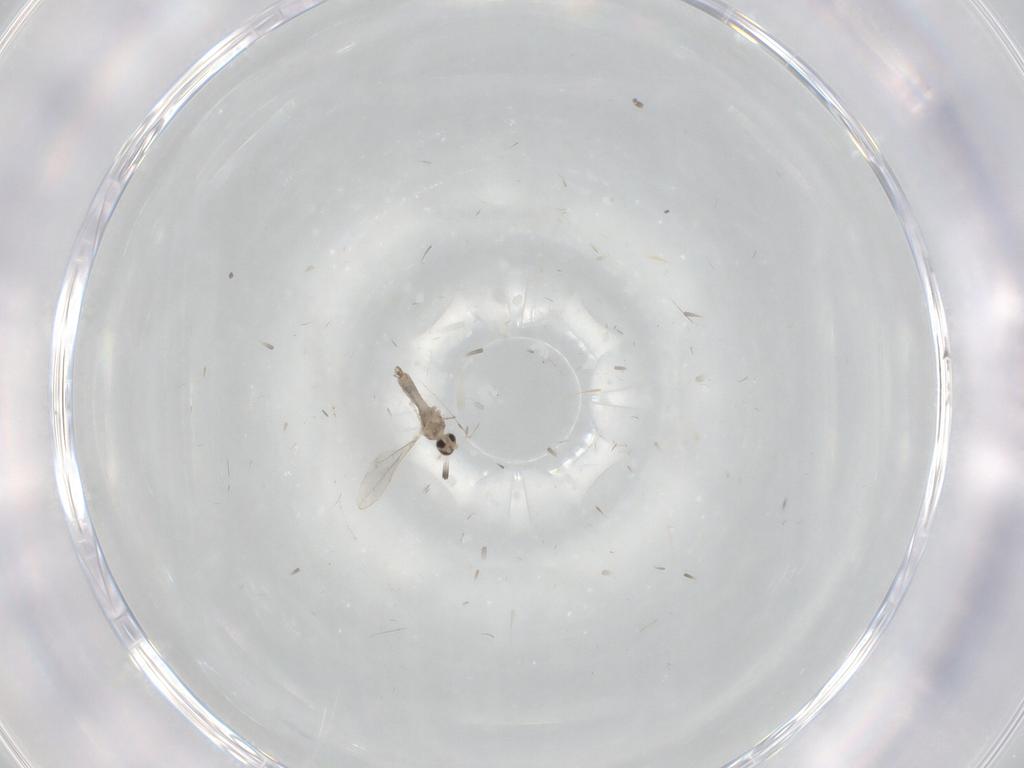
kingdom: Animalia
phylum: Arthropoda
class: Insecta
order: Diptera
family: Cecidomyiidae
